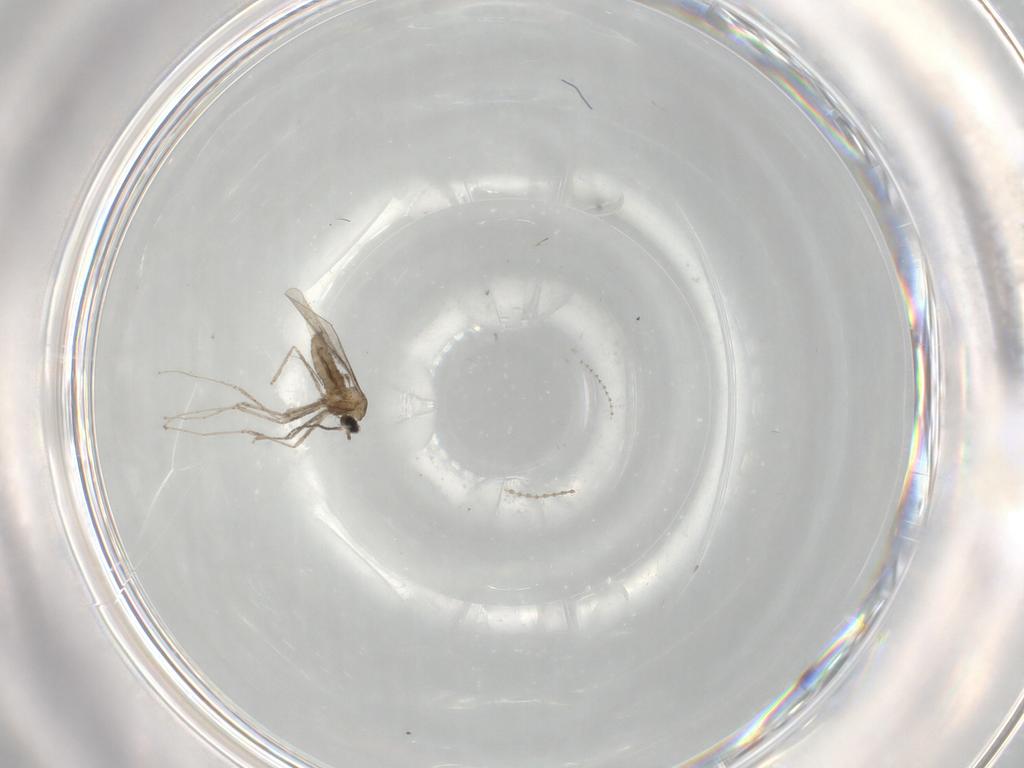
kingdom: Animalia
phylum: Arthropoda
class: Insecta
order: Diptera
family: Cecidomyiidae
